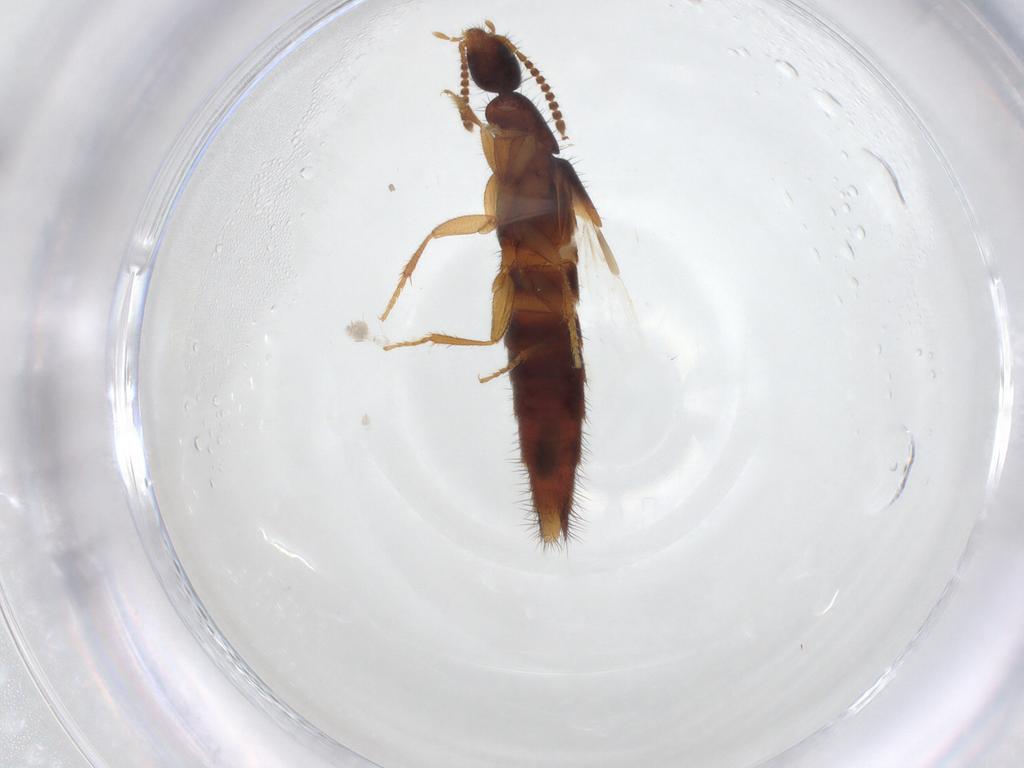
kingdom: Animalia
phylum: Arthropoda
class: Insecta
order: Coleoptera
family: Staphylinidae
